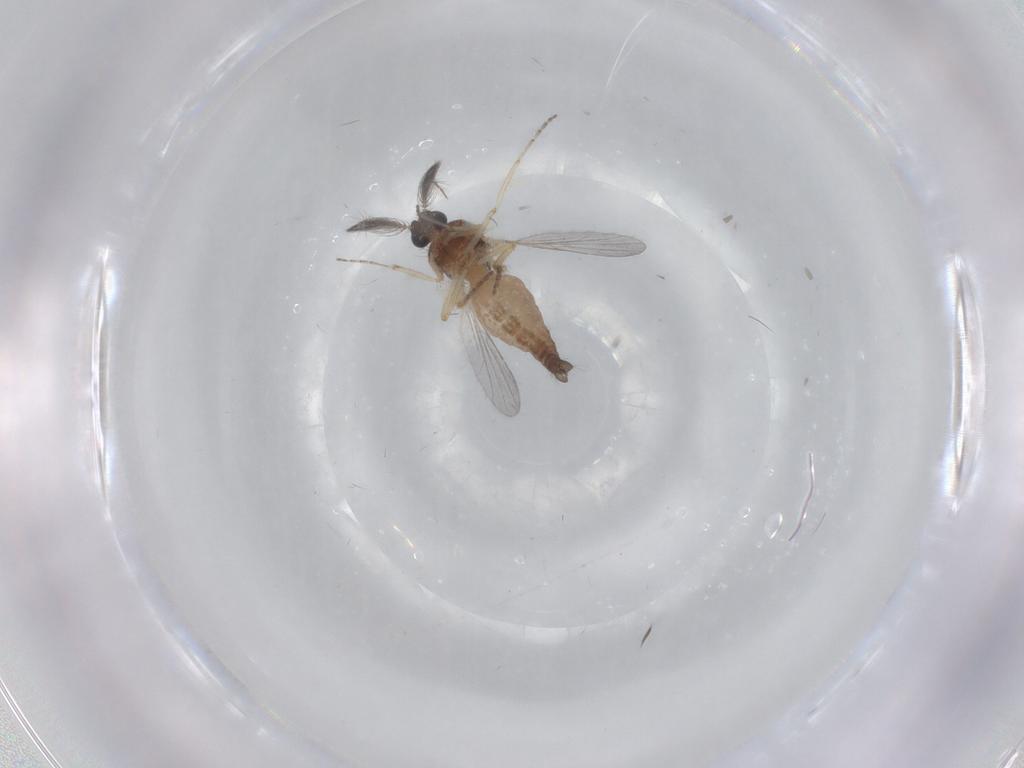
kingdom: Animalia
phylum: Arthropoda
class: Insecta
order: Diptera
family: Ceratopogonidae
